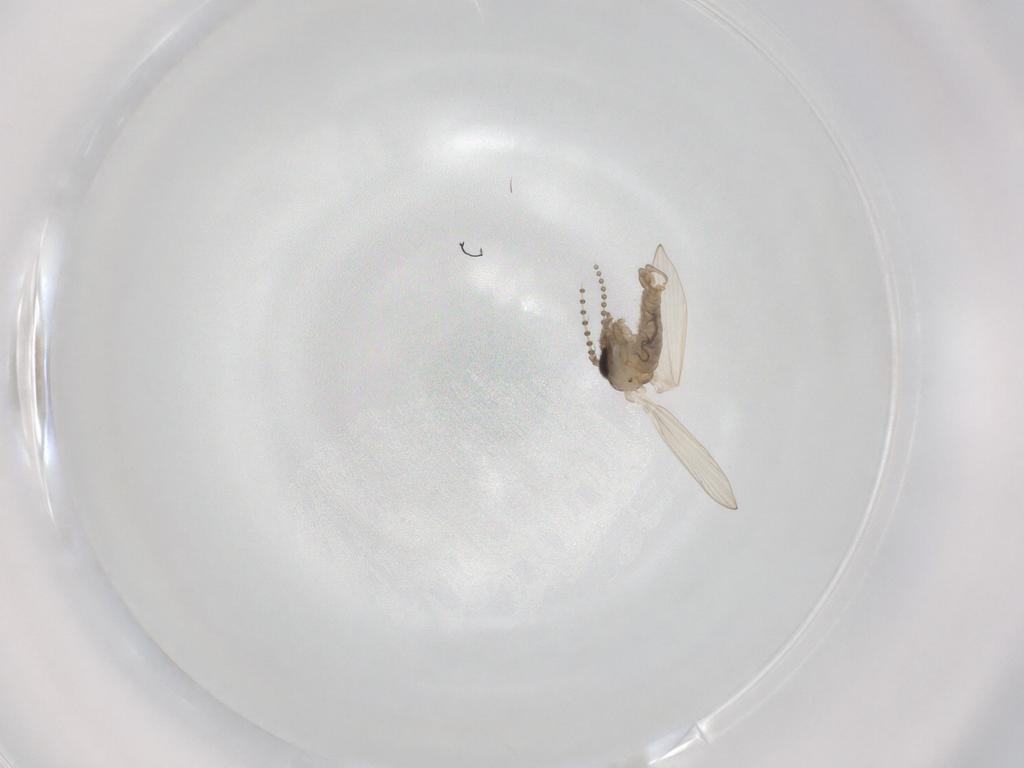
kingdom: Animalia
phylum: Arthropoda
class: Insecta
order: Diptera
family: Psychodidae
